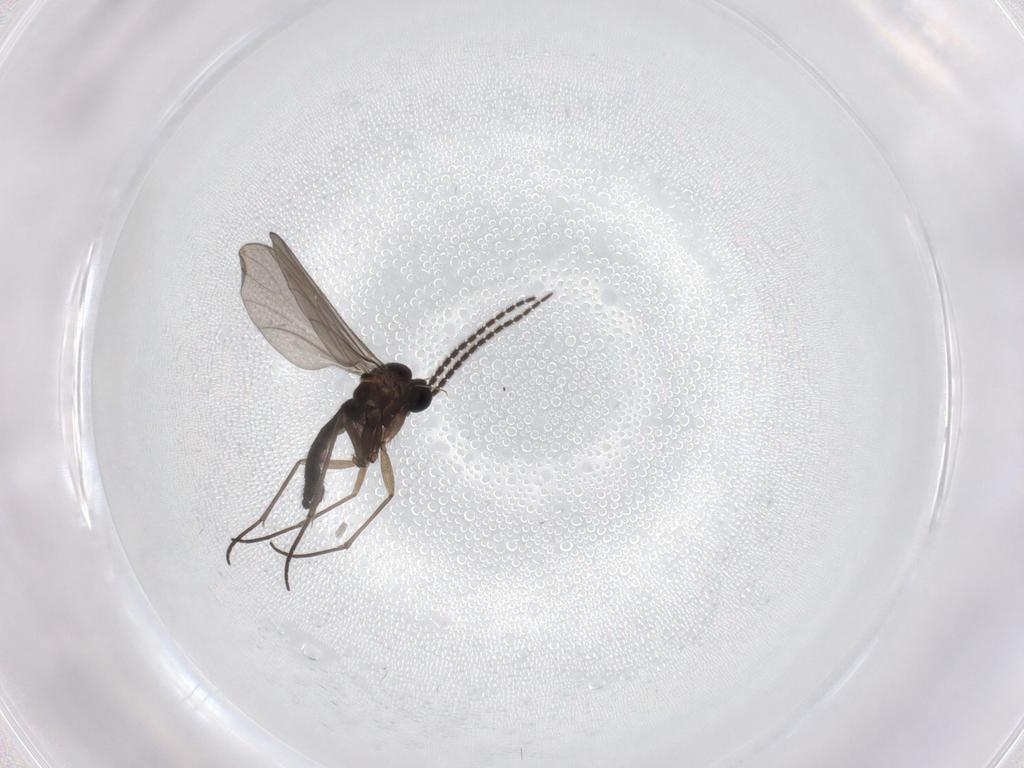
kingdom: Animalia
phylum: Arthropoda
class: Insecta
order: Diptera
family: Sciaridae
